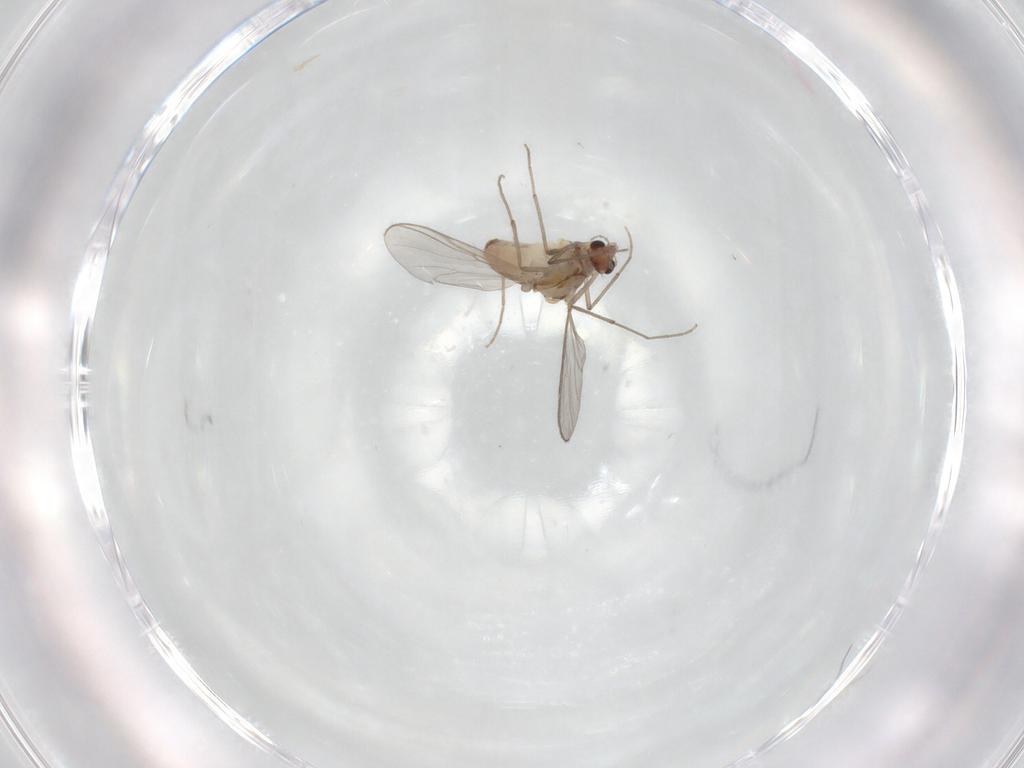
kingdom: Animalia
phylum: Arthropoda
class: Insecta
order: Diptera
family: Chironomidae
